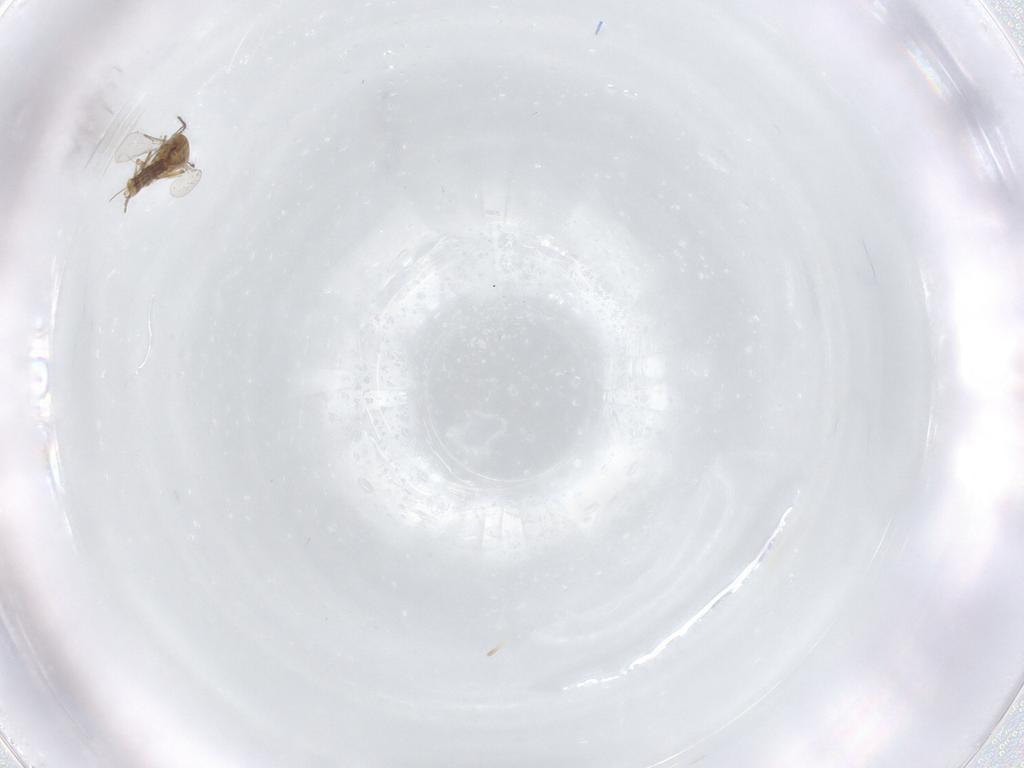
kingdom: Animalia
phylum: Arthropoda
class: Insecta
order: Diptera
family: Ceratopogonidae
